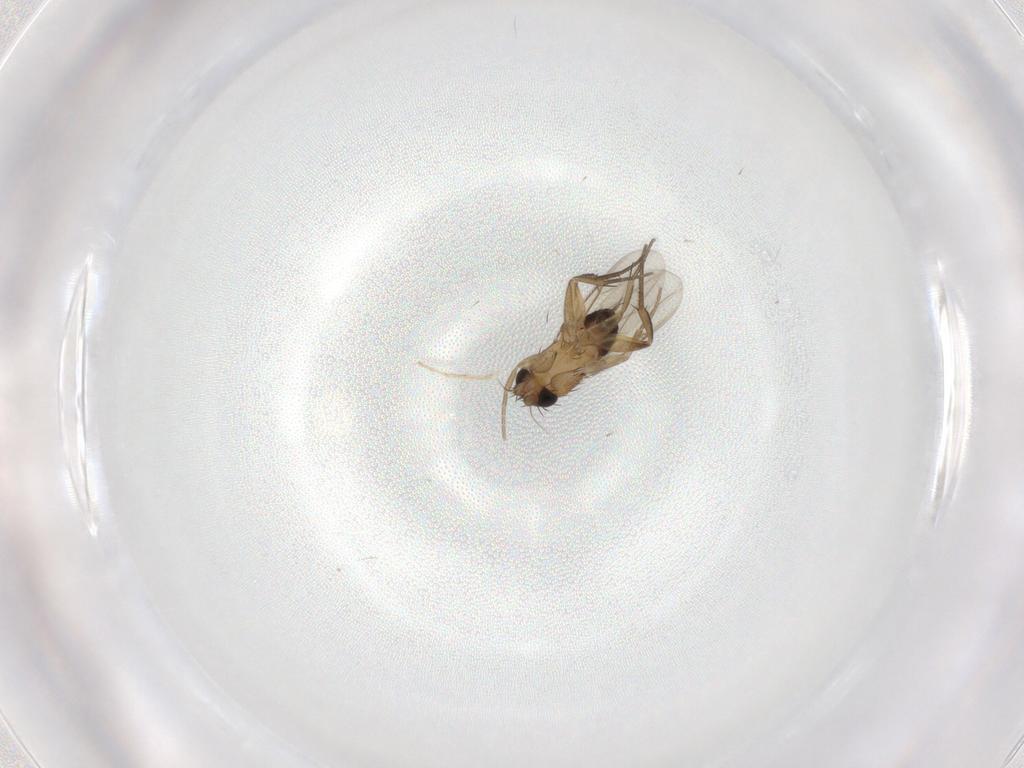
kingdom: Animalia
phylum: Arthropoda
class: Insecta
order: Diptera
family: Phoridae
